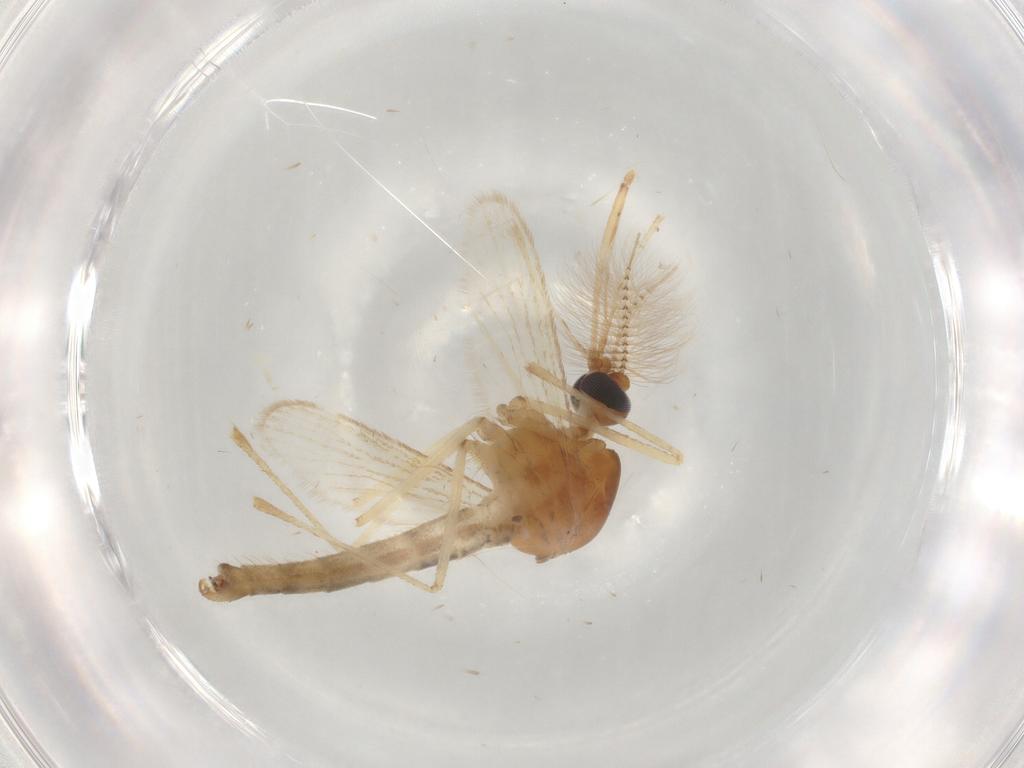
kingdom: Animalia
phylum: Arthropoda
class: Insecta
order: Diptera
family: Culicidae
